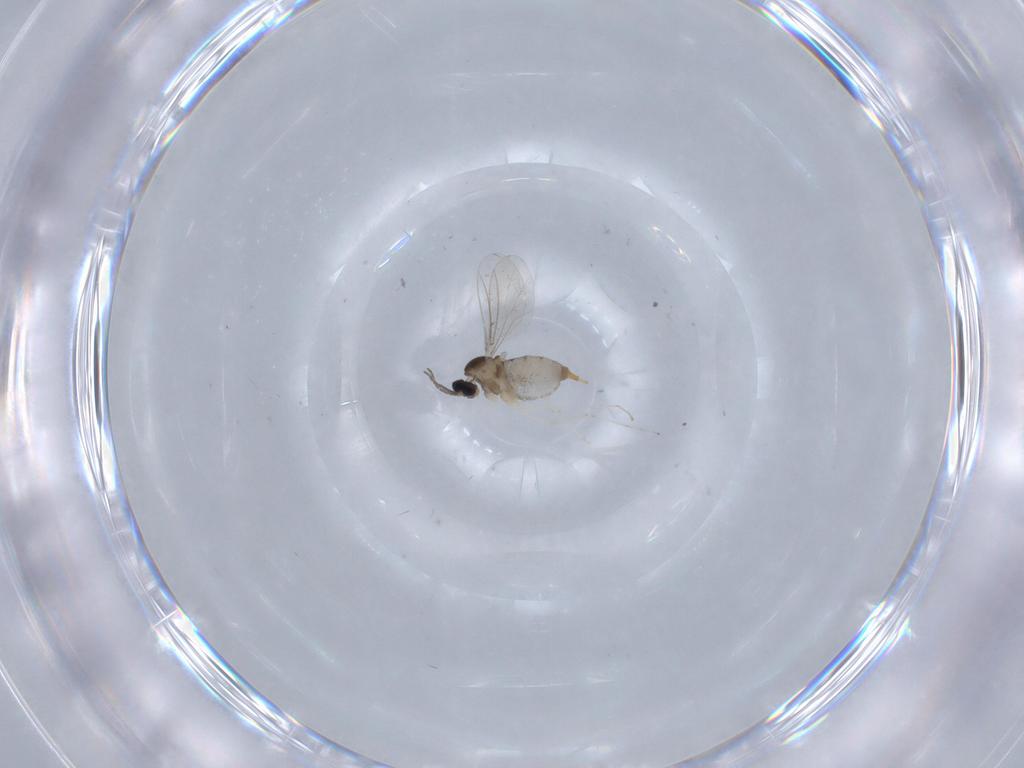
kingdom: Animalia
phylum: Arthropoda
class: Insecta
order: Diptera
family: Cecidomyiidae
